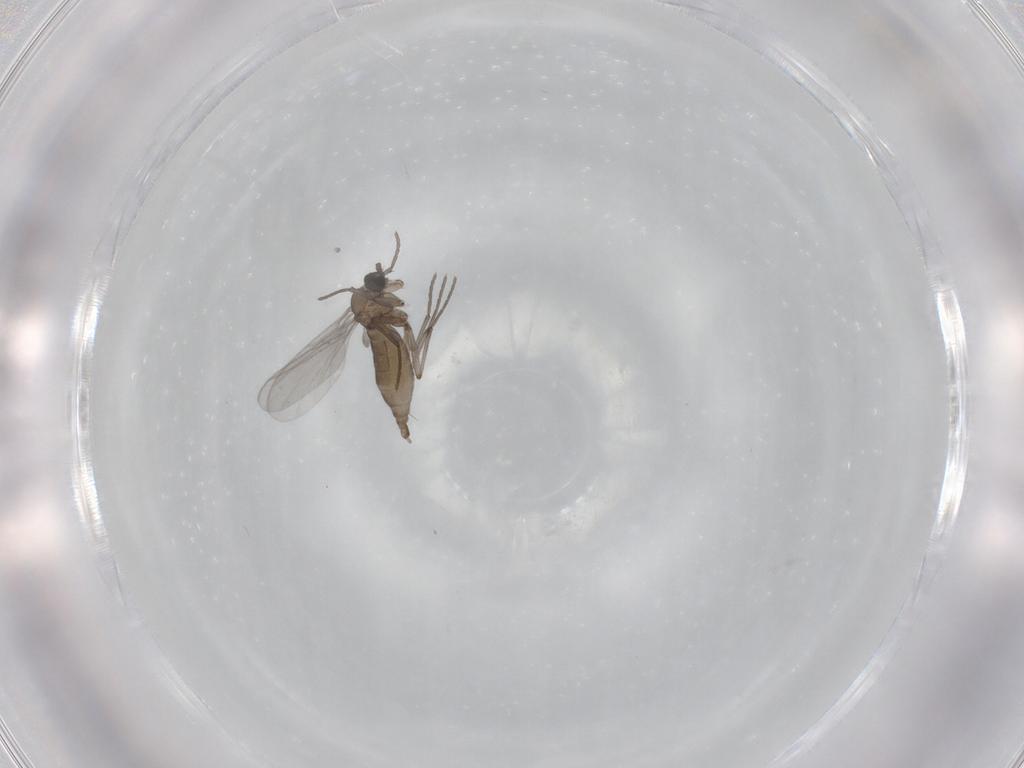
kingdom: Animalia
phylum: Arthropoda
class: Insecta
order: Diptera
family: Sciaridae
